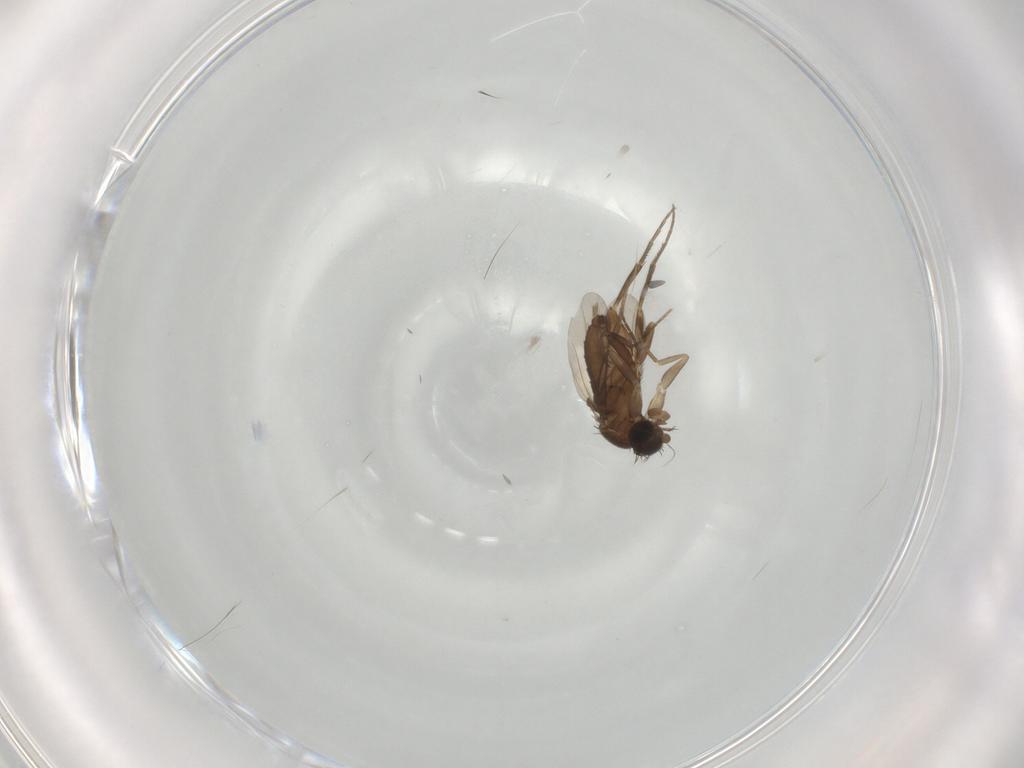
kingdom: Animalia
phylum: Arthropoda
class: Insecta
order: Diptera
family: Phoridae
